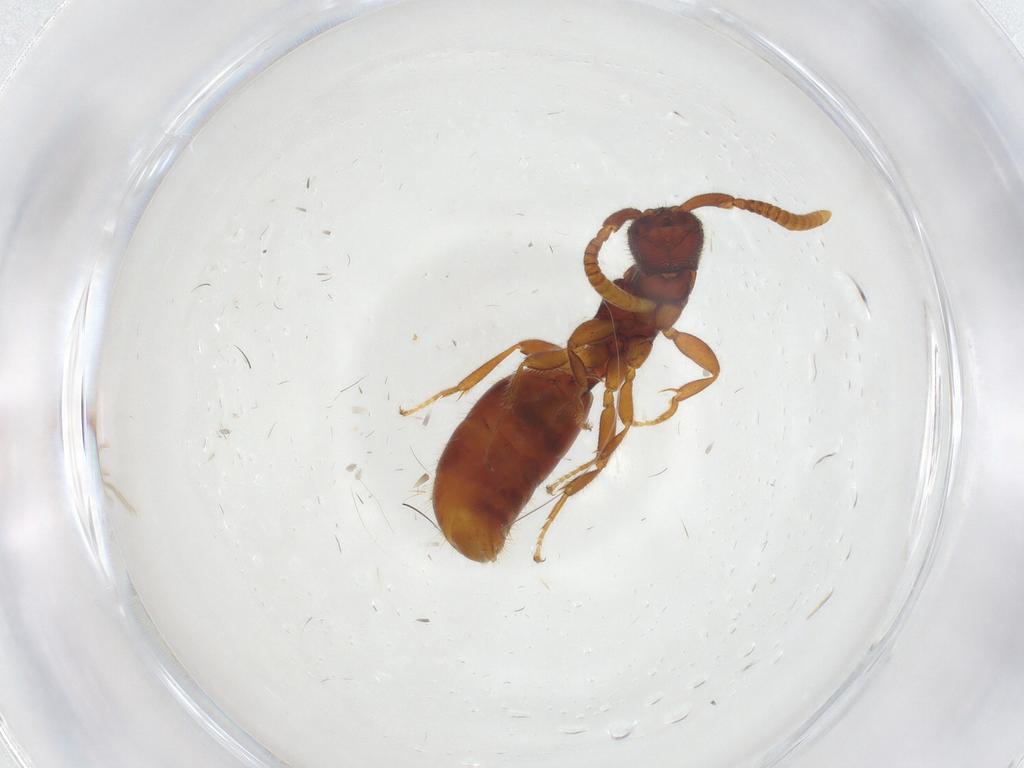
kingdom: Animalia
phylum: Arthropoda
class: Insecta
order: Hymenoptera
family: Bethylidae
